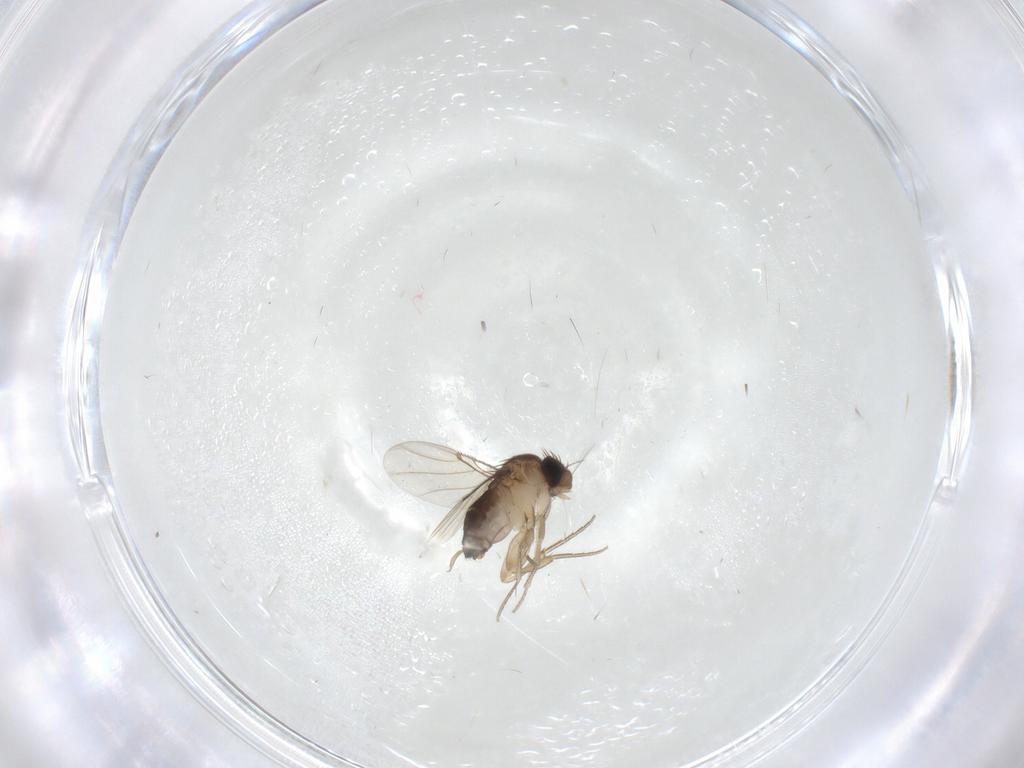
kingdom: Animalia
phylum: Arthropoda
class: Insecta
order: Diptera
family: Phoridae
